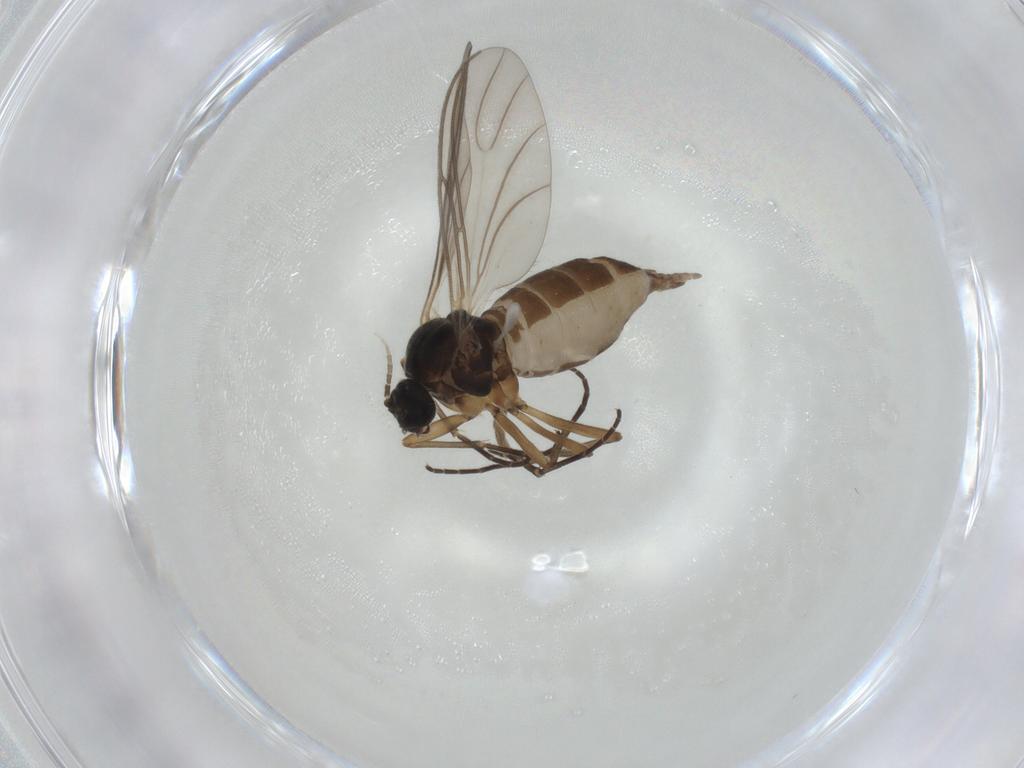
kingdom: Animalia
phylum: Arthropoda
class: Insecta
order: Diptera
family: Sciaridae
